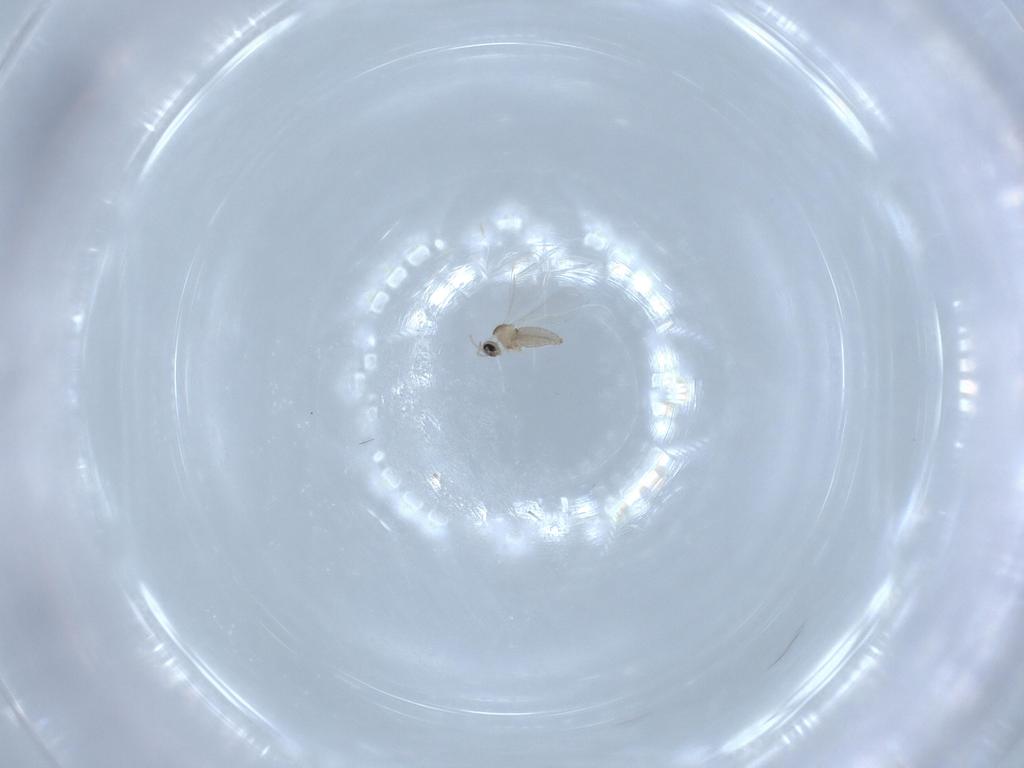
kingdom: Animalia
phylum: Arthropoda
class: Insecta
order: Diptera
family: Cecidomyiidae
